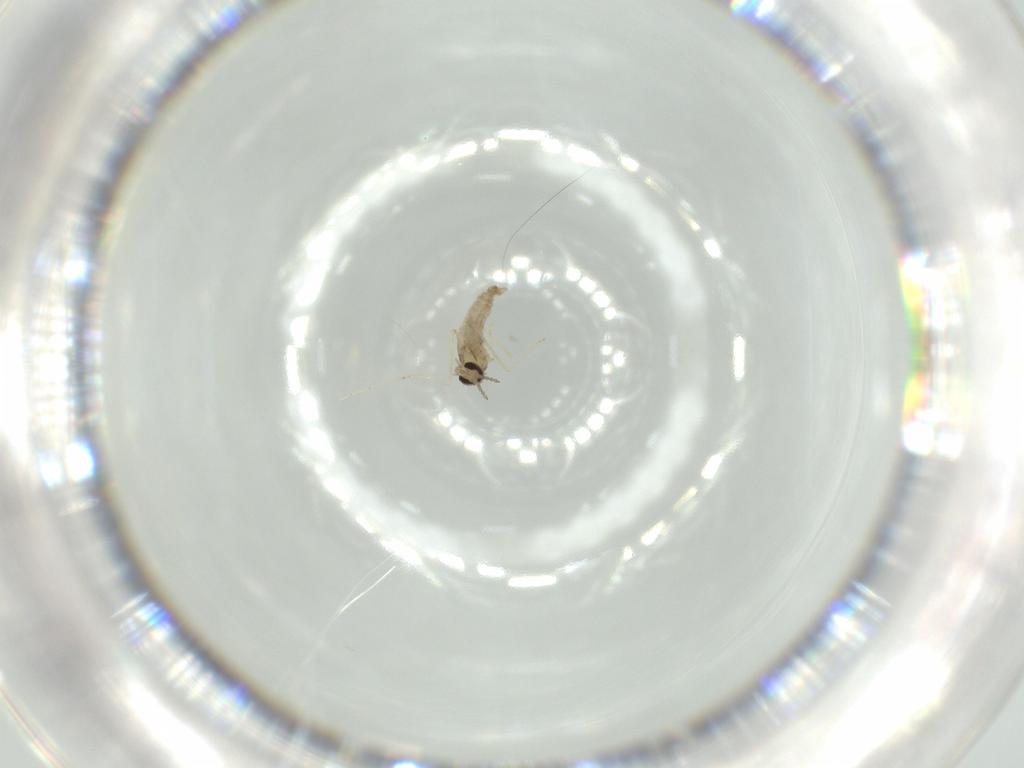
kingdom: Animalia
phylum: Arthropoda
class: Insecta
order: Diptera
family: Cecidomyiidae
